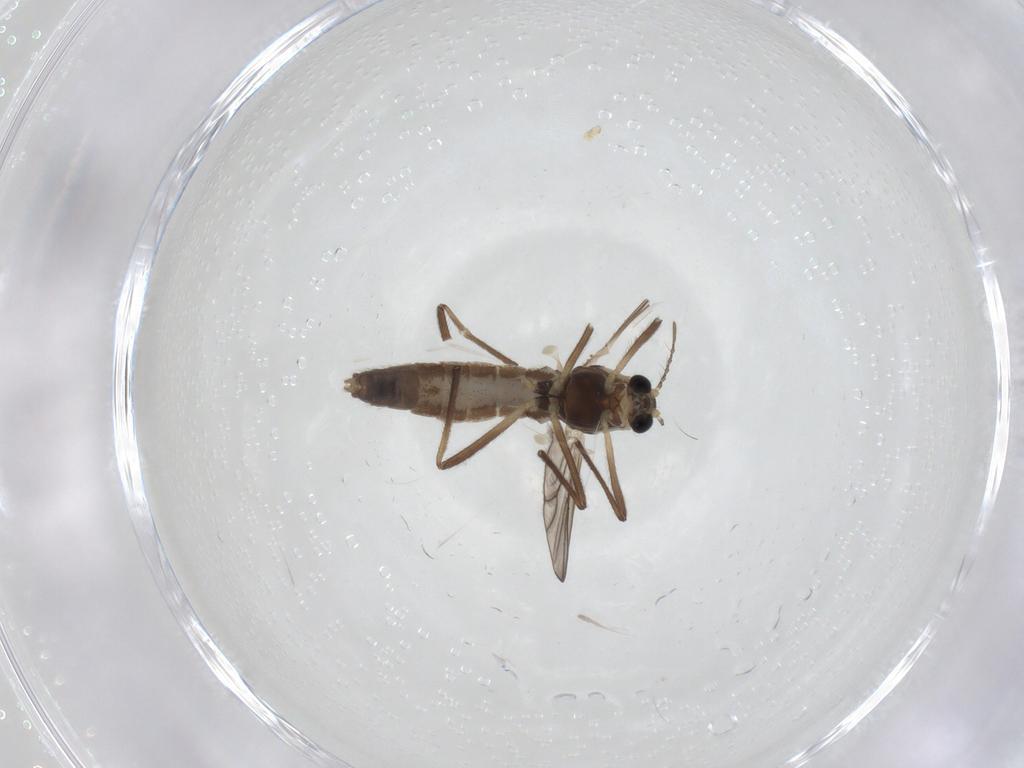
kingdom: Animalia
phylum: Arthropoda
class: Insecta
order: Diptera
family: Chironomidae
